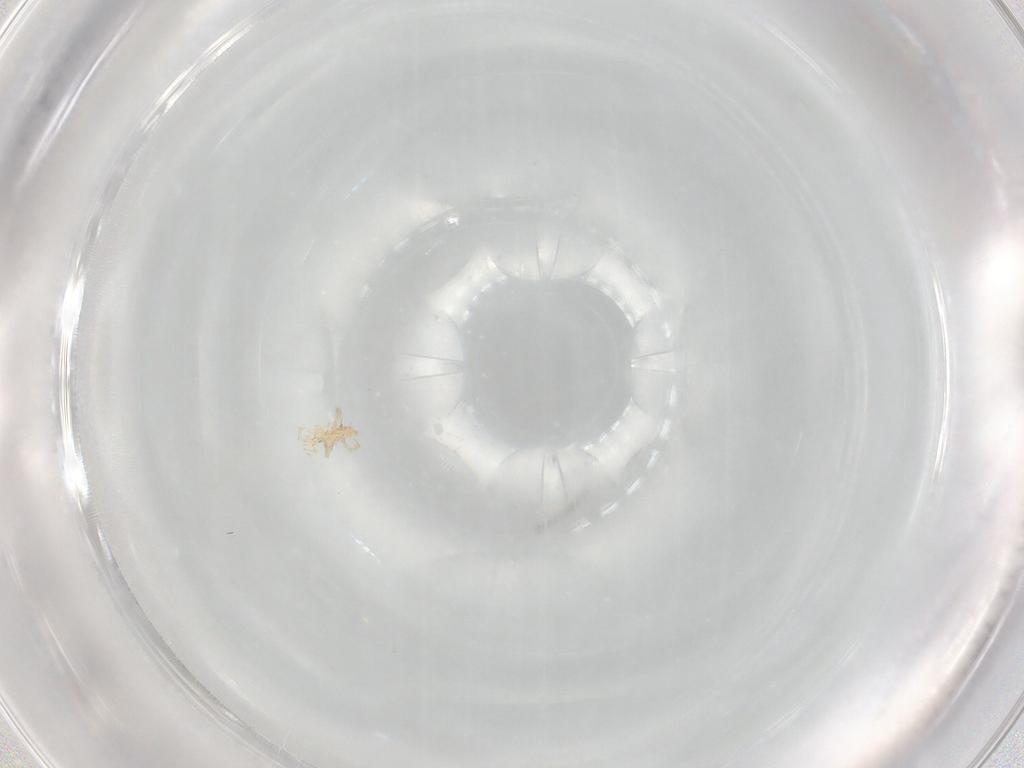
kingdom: Animalia
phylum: Arthropoda
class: Arachnida
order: Trombidiformes
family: Erythraeidae
